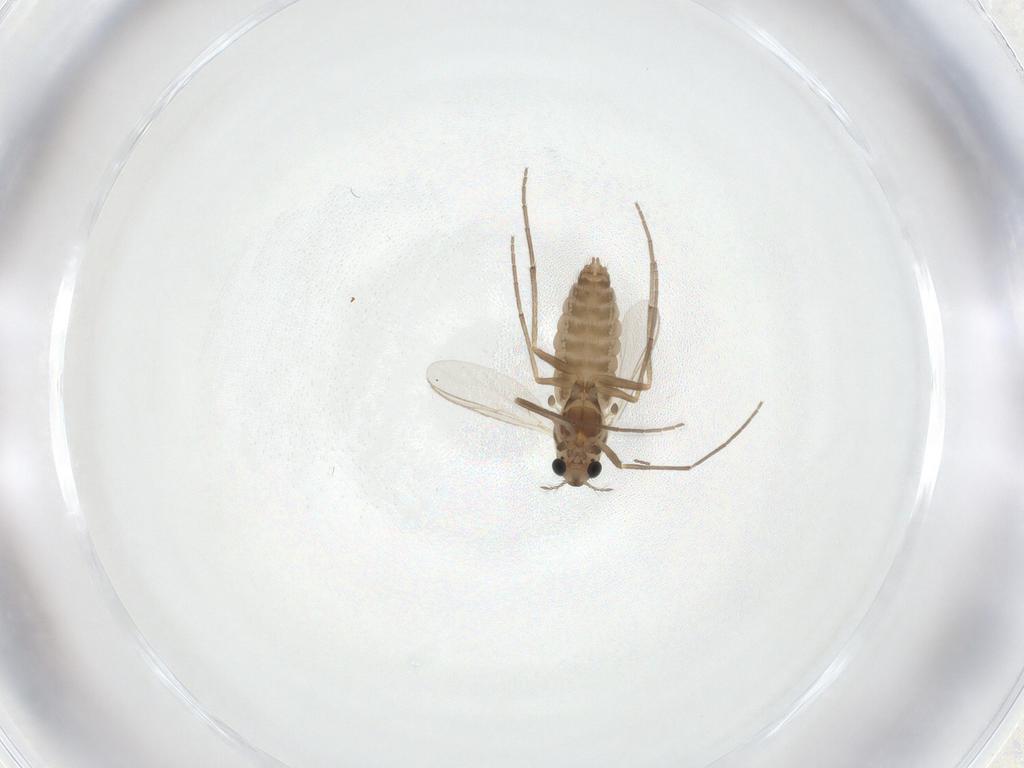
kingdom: Animalia
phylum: Arthropoda
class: Insecta
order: Diptera
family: Chironomidae
